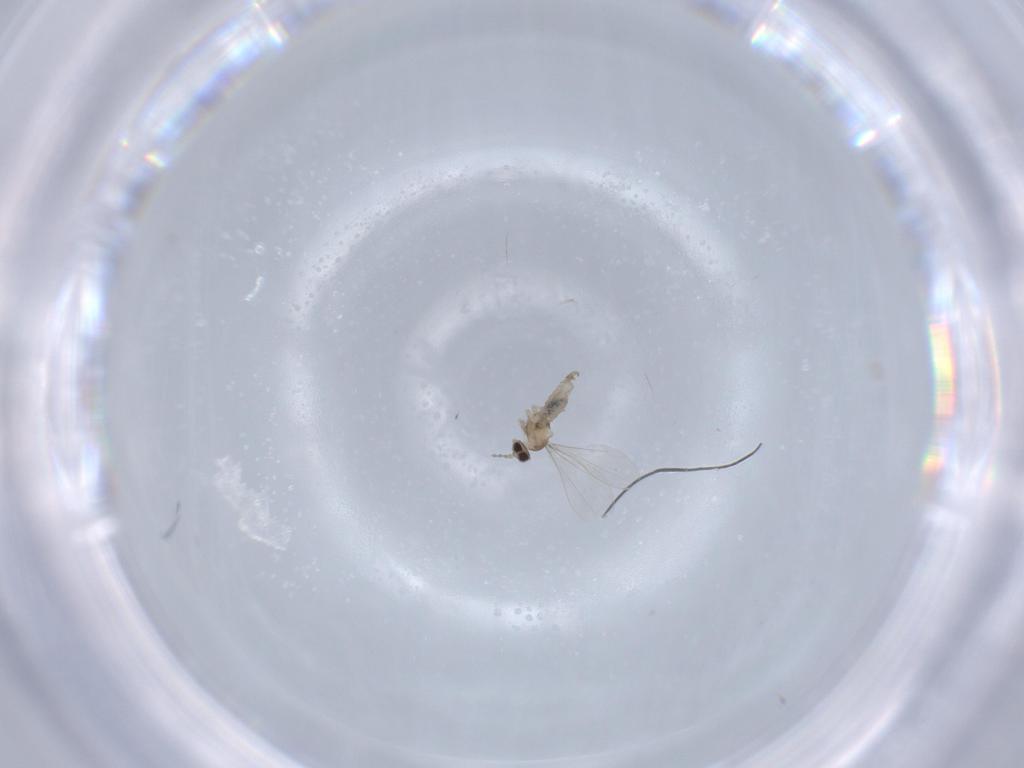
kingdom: Animalia
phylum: Arthropoda
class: Insecta
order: Diptera
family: Cecidomyiidae
